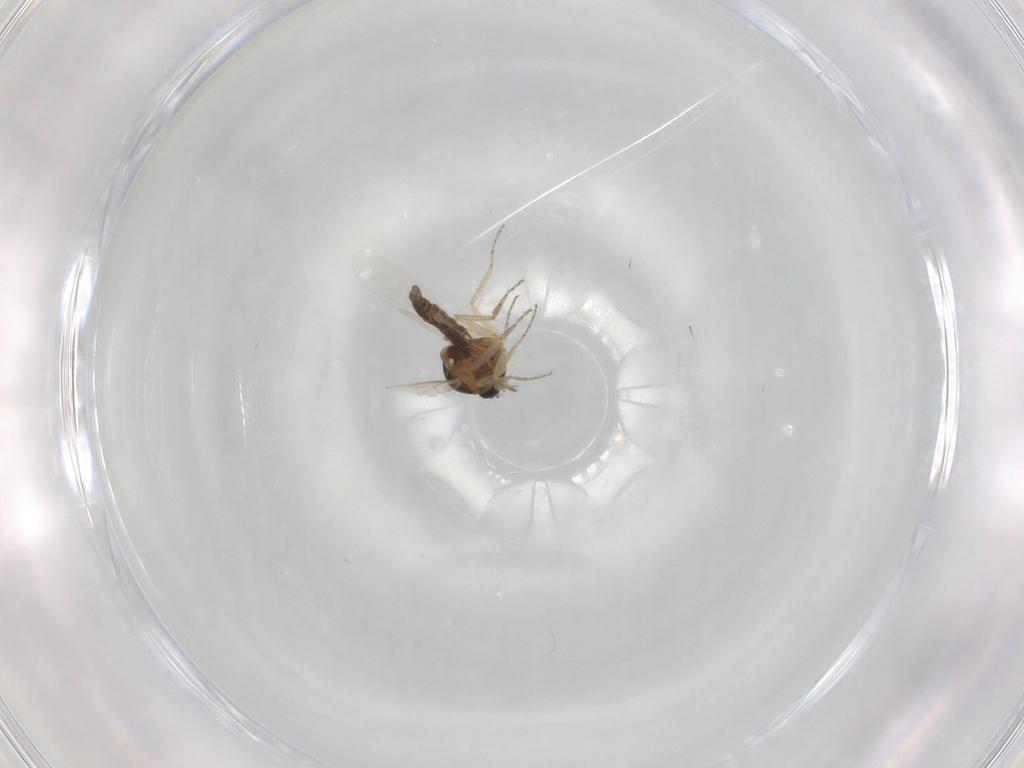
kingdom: Animalia
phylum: Arthropoda
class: Insecta
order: Diptera
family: Ceratopogonidae
